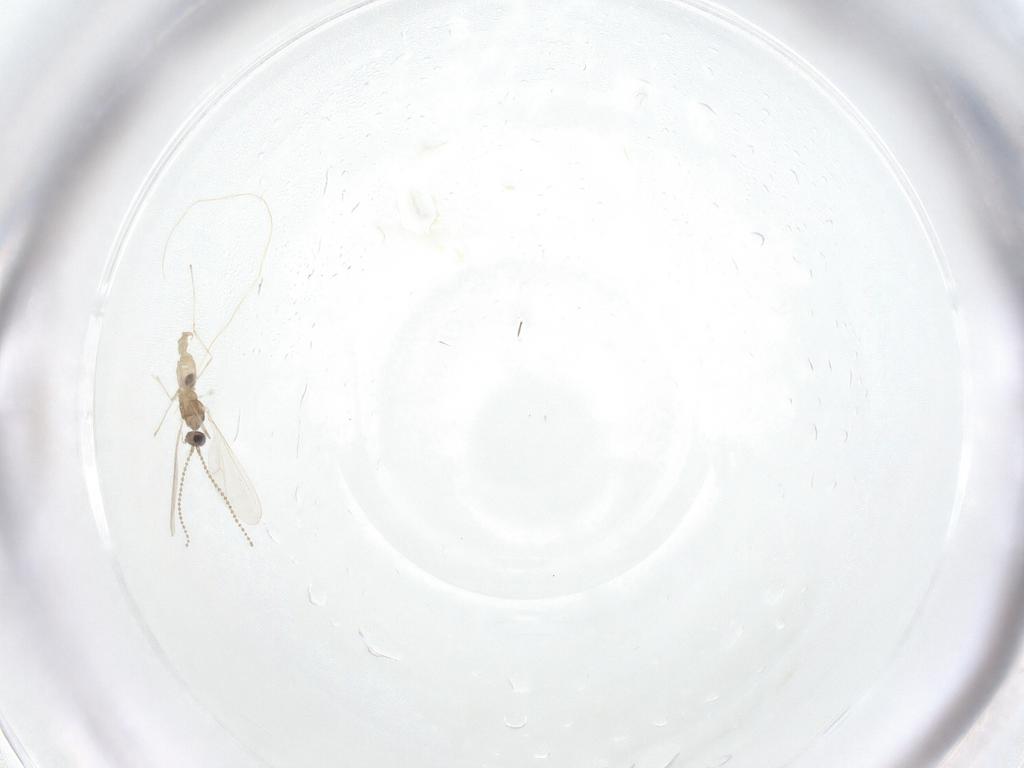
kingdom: Animalia
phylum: Arthropoda
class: Insecta
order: Diptera
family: Cecidomyiidae
